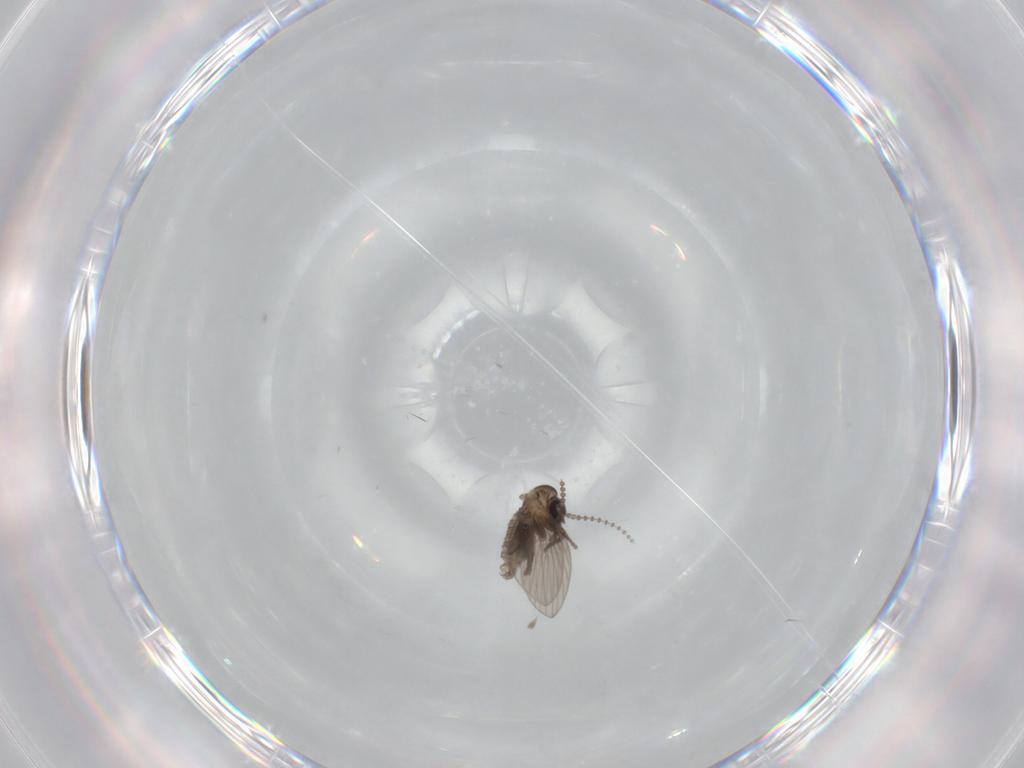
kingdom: Animalia
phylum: Arthropoda
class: Insecta
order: Diptera
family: Psychodidae
